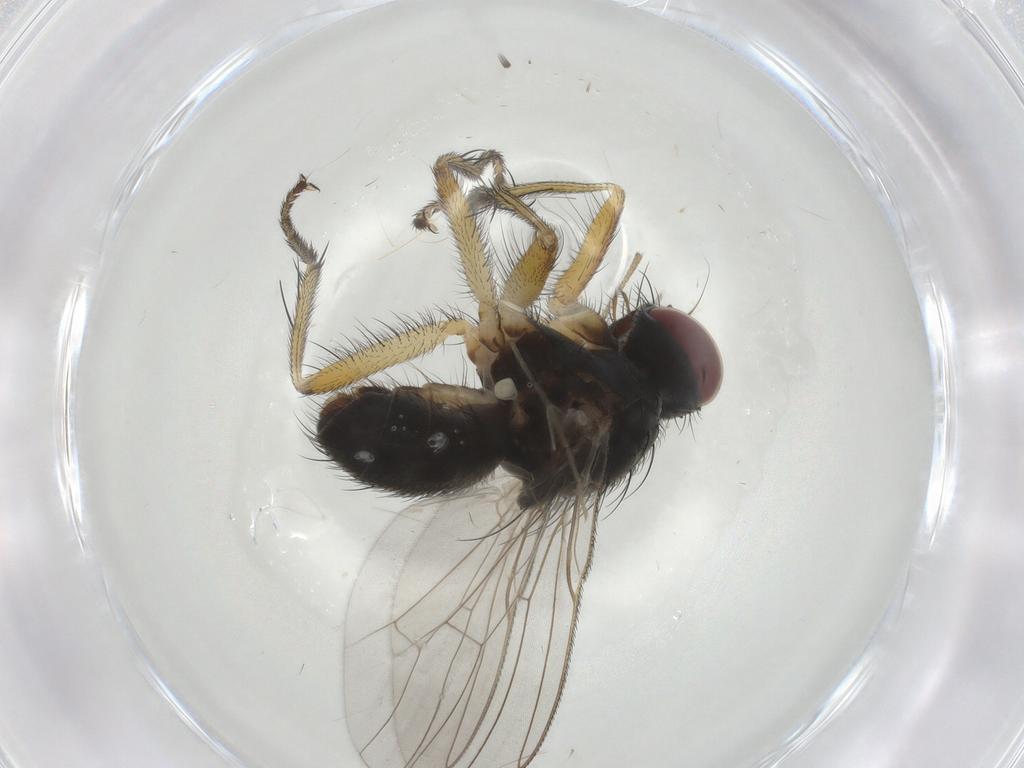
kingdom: Animalia
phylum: Arthropoda
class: Insecta
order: Diptera
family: Muscidae
